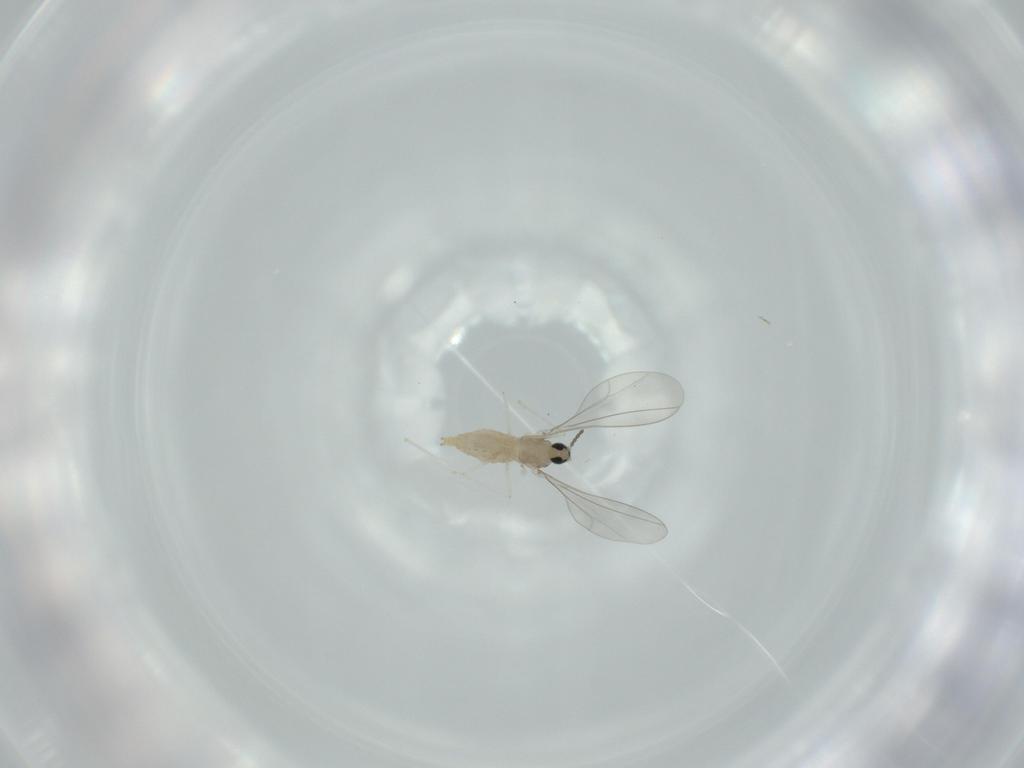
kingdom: Animalia
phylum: Arthropoda
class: Insecta
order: Diptera
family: Cecidomyiidae
